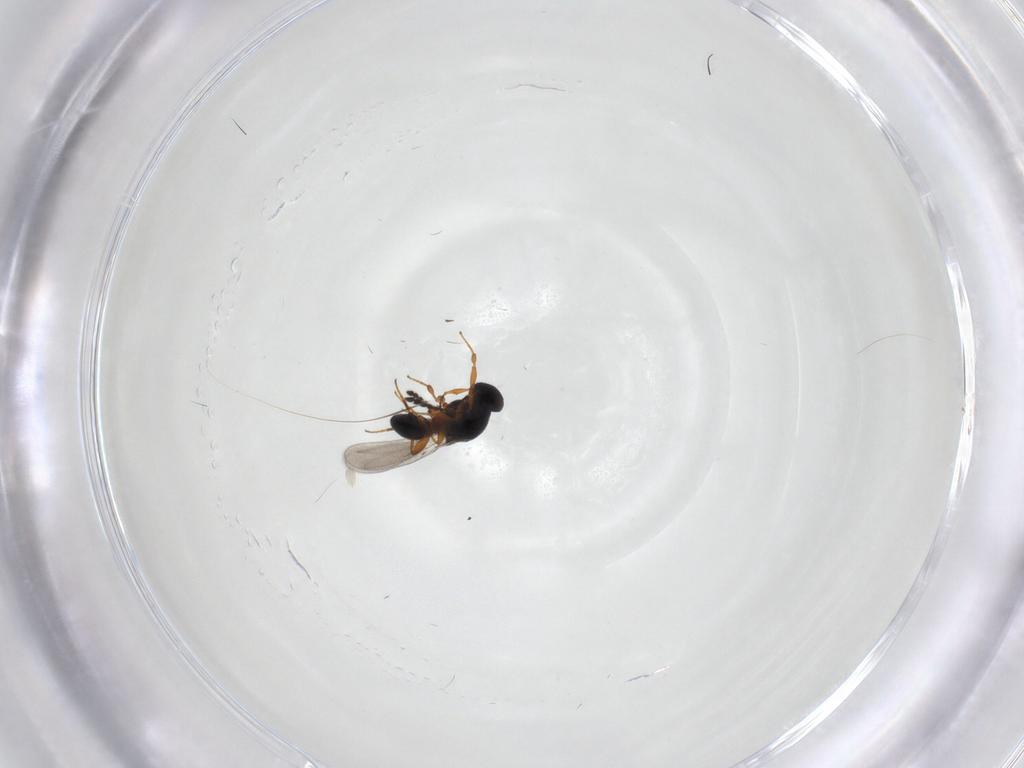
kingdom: Animalia
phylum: Arthropoda
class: Insecta
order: Hymenoptera
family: Platygastridae
